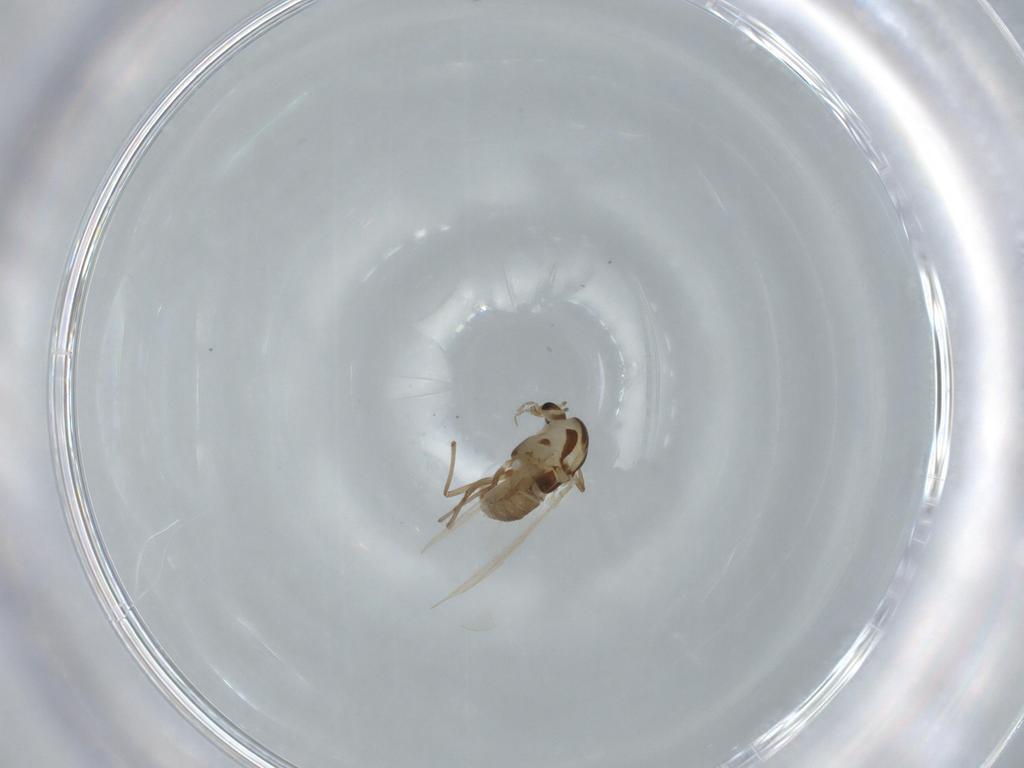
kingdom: Animalia
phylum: Arthropoda
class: Insecta
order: Diptera
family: Chironomidae
